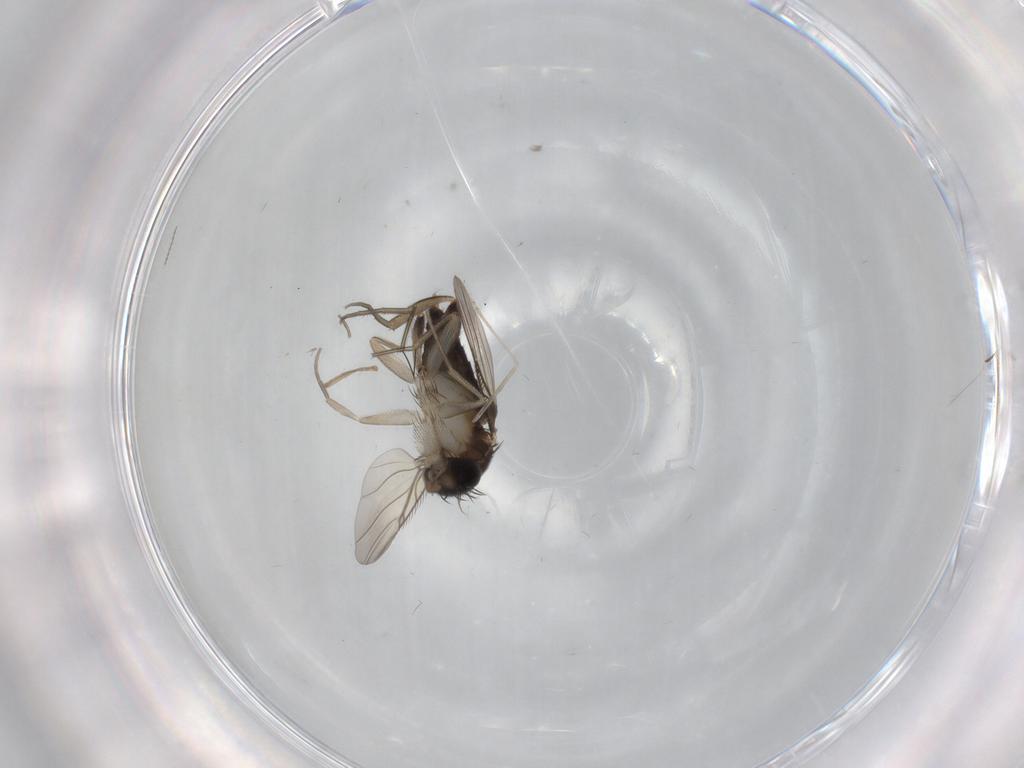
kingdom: Animalia
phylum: Arthropoda
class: Insecta
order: Diptera
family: Phoridae
